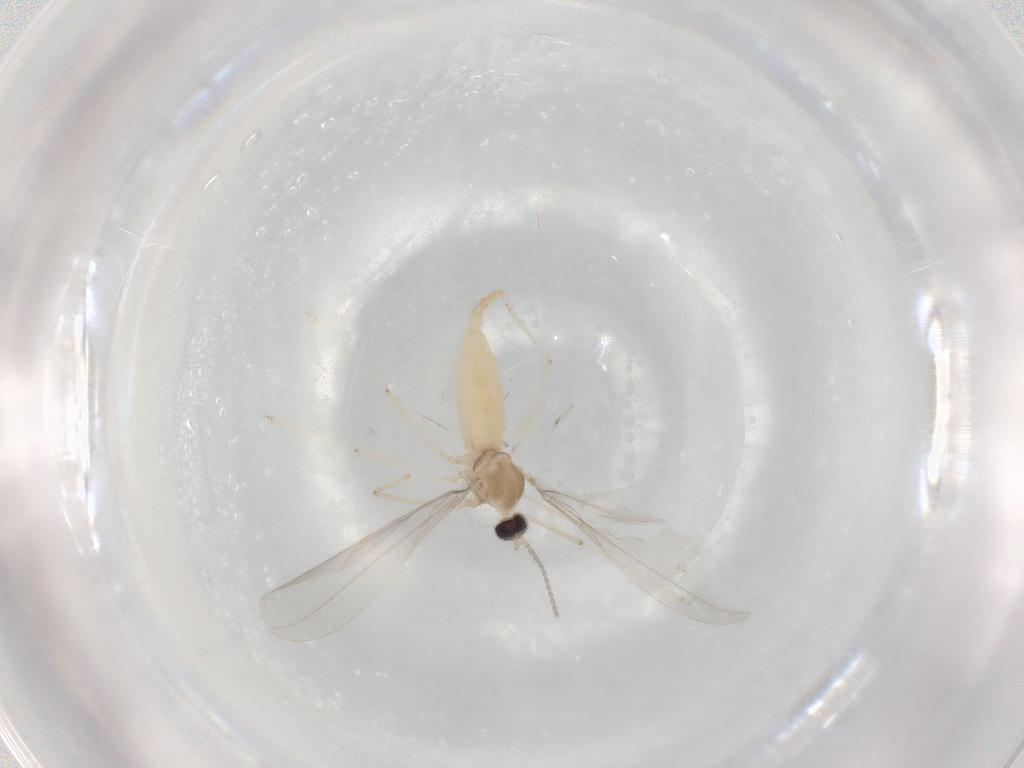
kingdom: Animalia
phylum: Arthropoda
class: Insecta
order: Diptera
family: Cecidomyiidae
